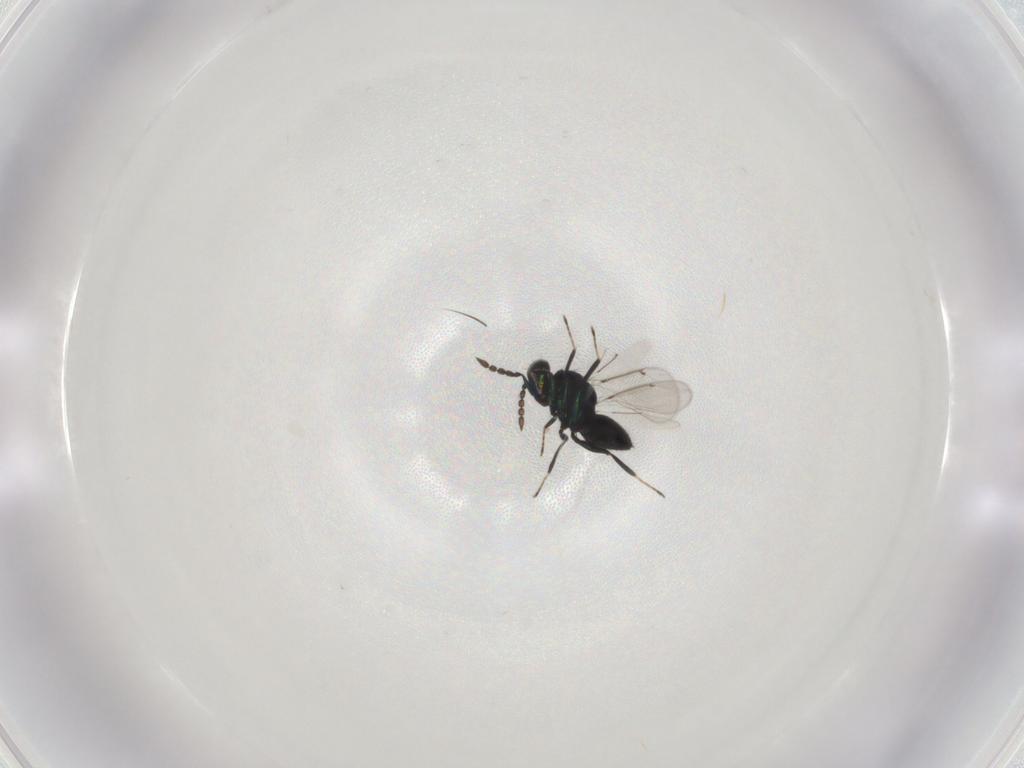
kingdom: Animalia
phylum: Arthropoda
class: Insecta
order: Hymenoptera
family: Eulophidae
